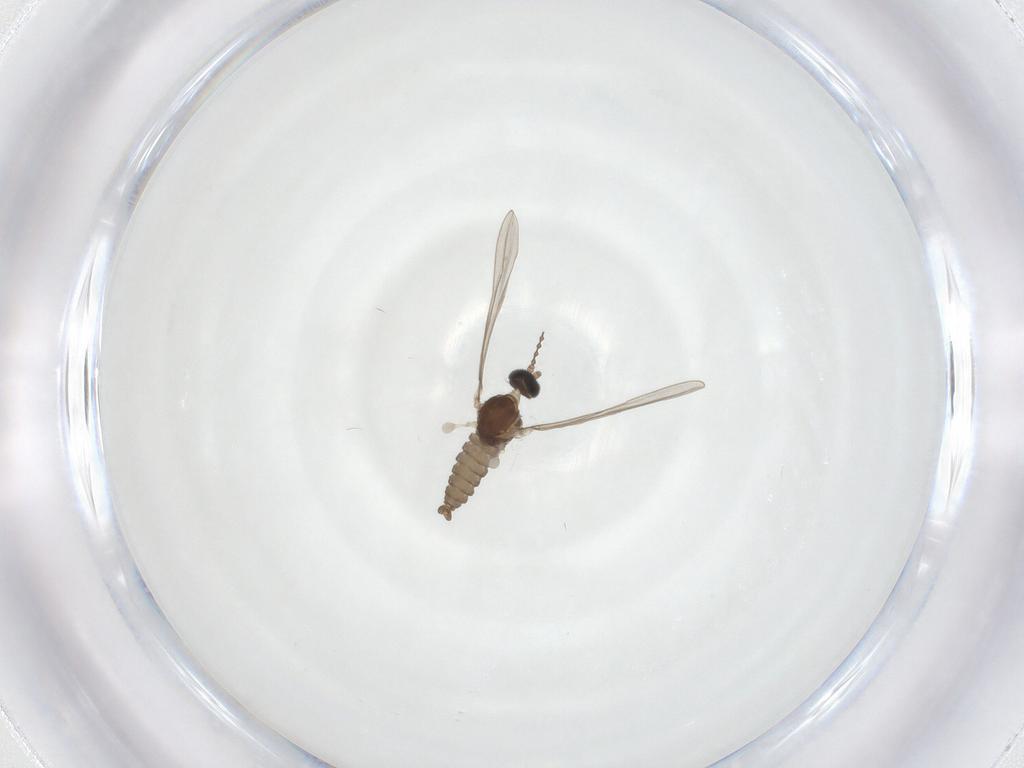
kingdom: Animalia
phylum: Arthropoda
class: Insecta
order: Diptera
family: Cecidomyiidae
